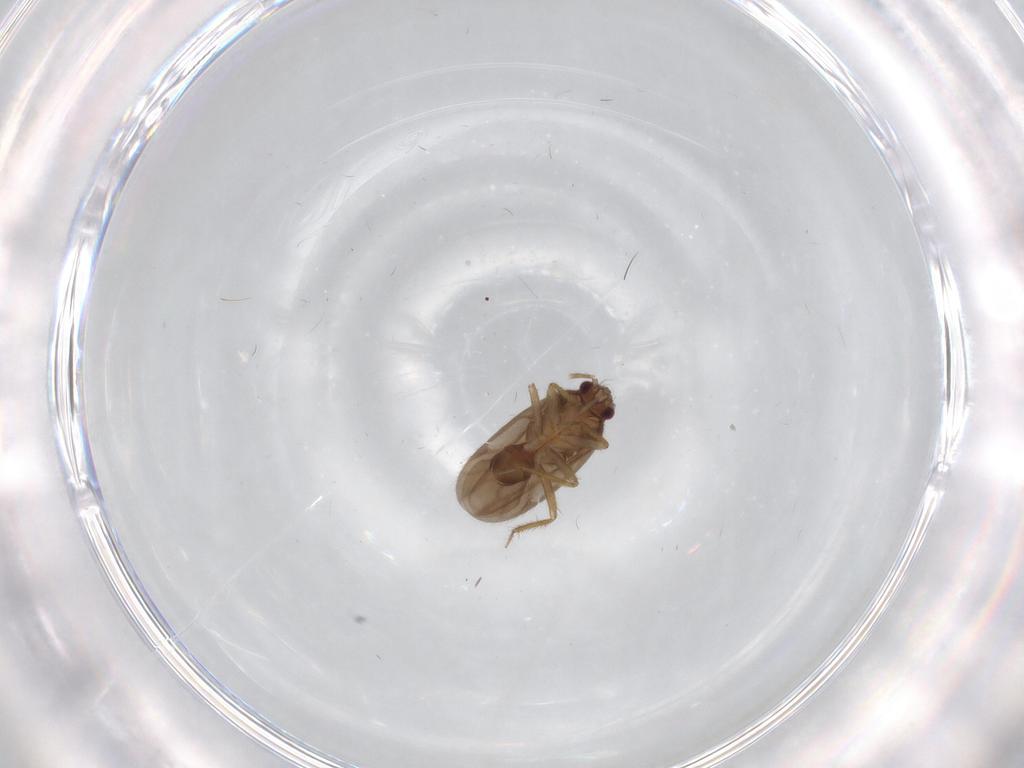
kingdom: Animalia
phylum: Arthropoda
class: Insecta
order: Hemiptera
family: Ceratocombidae
